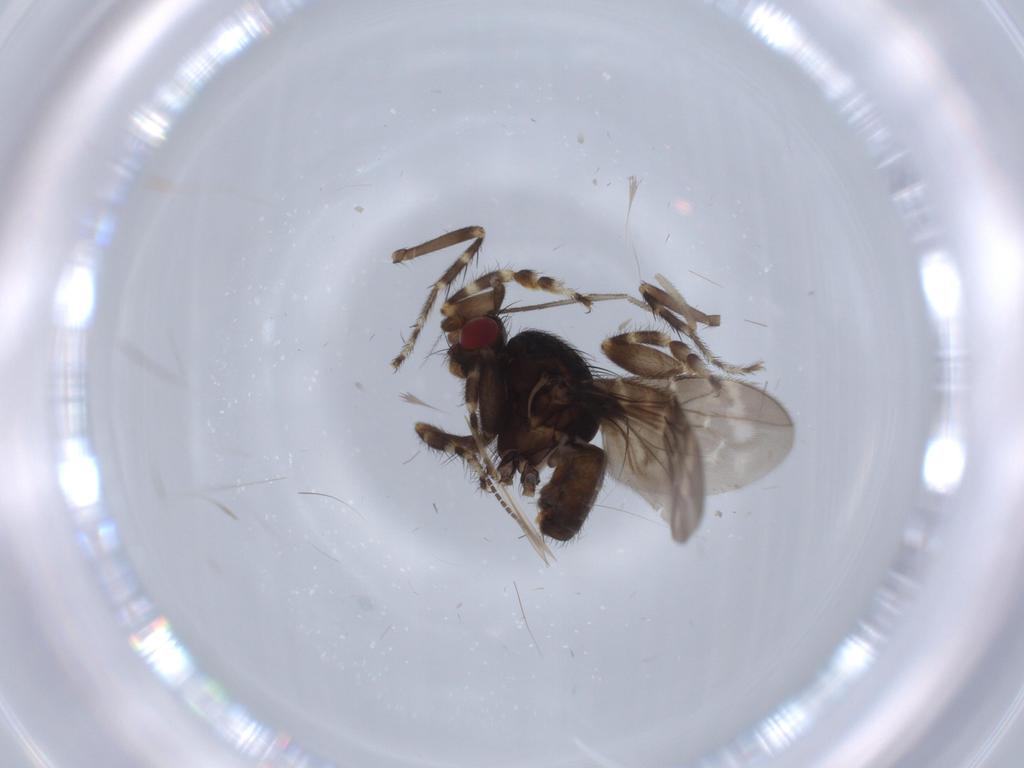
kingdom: Animalia
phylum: Arthropoda
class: Insecta
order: Diptera
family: Sphaeroceridae
